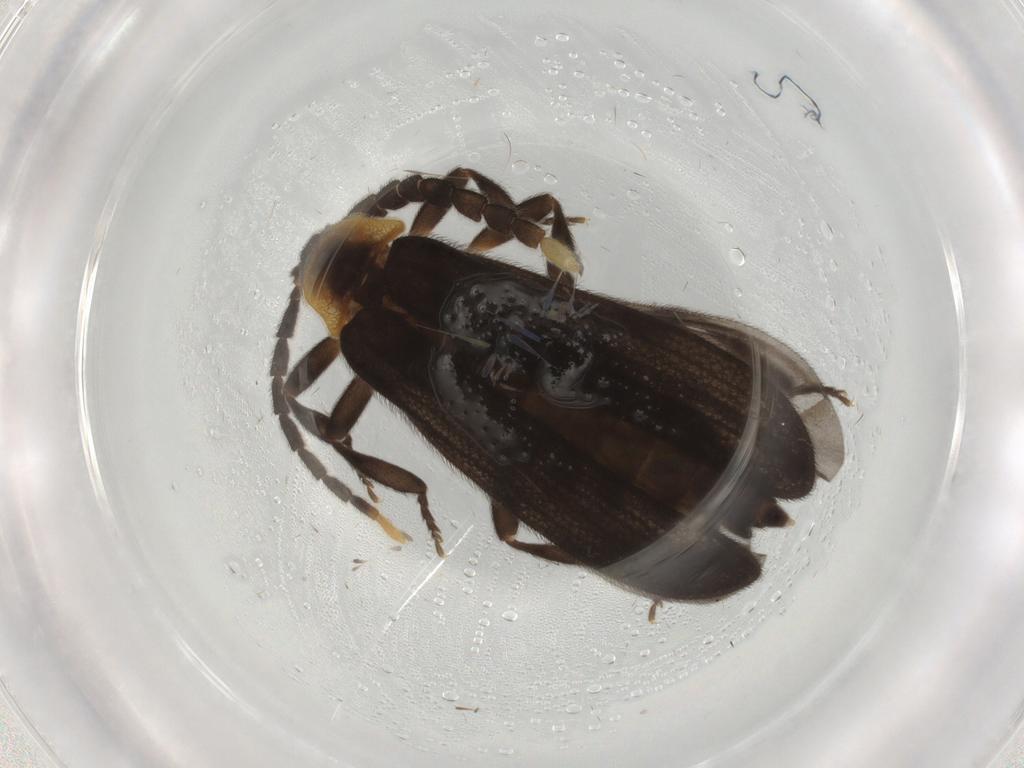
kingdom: Animalia
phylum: Arthropoda
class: Insecta
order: Coleoptera
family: Lycidae
